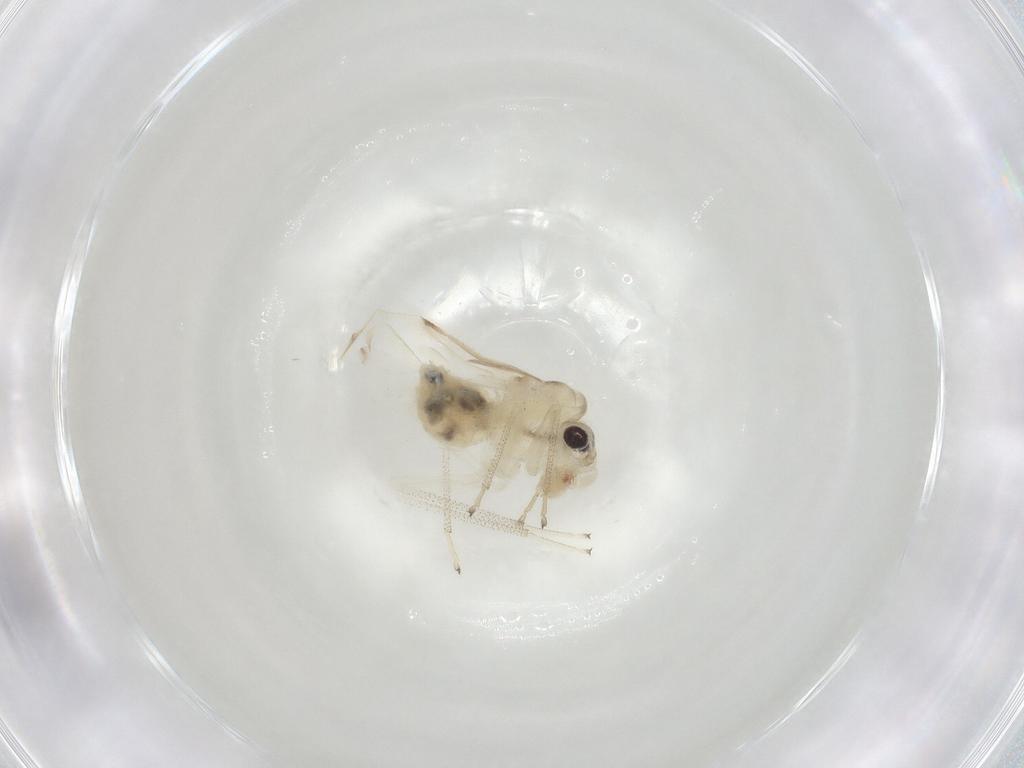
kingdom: Animalia
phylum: Arthropoda
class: Insecta
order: Psocodea
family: Caeciliusidae
